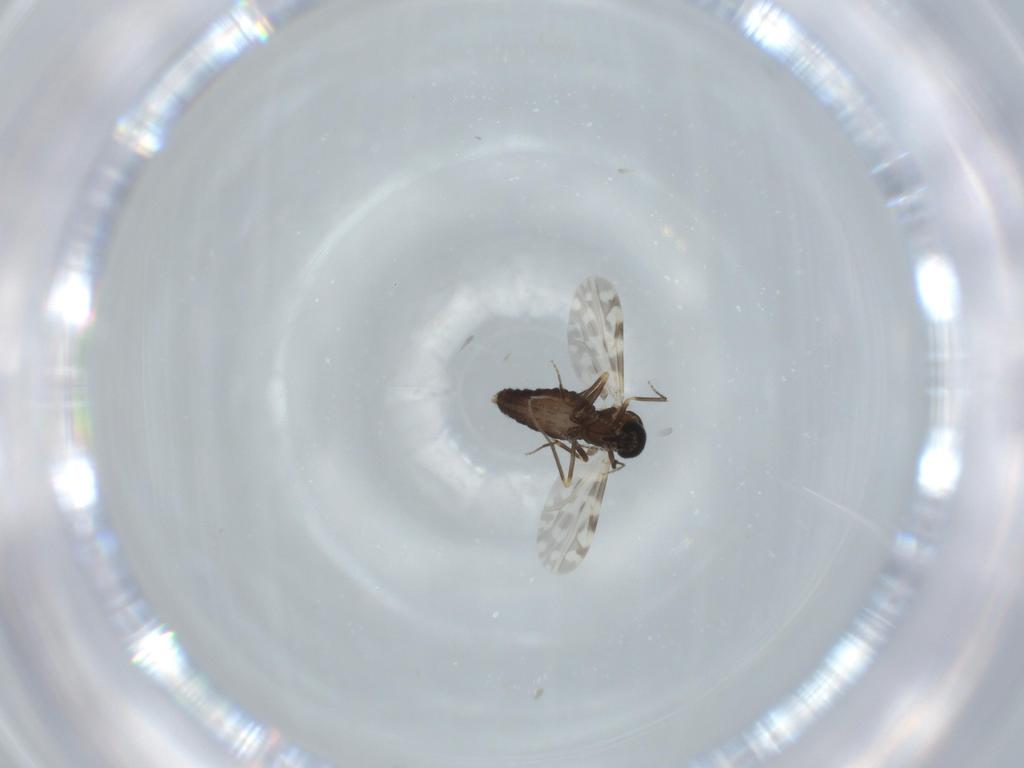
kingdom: Animalia
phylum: Arthropoda
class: Insecta
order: Diptera
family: Ceratopogonidae
